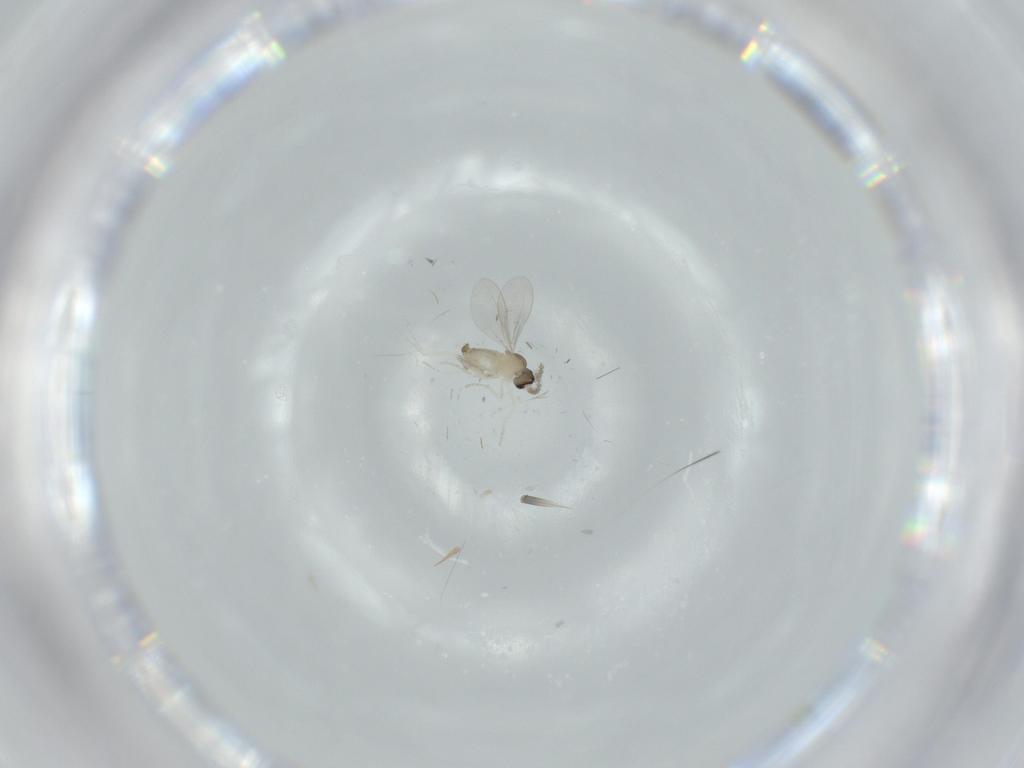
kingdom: Animalia
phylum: Arthropoda
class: Insecta
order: Diptera
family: Cecidomyiidae
